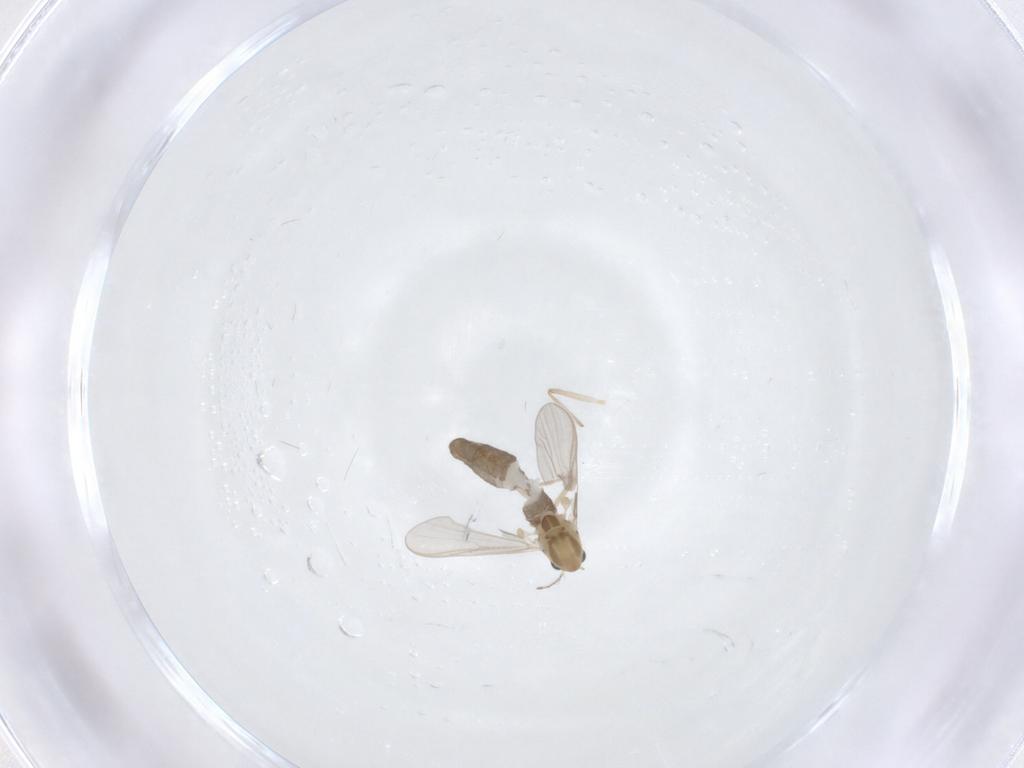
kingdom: Animalia
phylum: Arthropoda
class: Insecta
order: Diptera
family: Chironomidae
